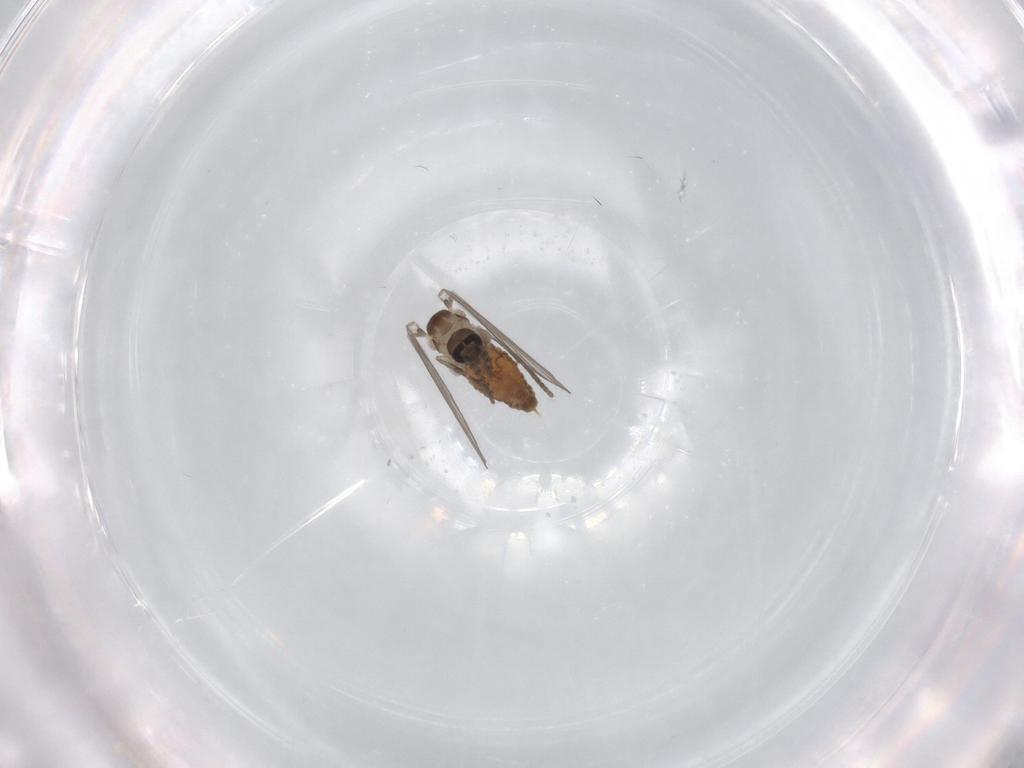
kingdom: Animalia
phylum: Arthropoda
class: Insecta
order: Diptera
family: Psychodidae
